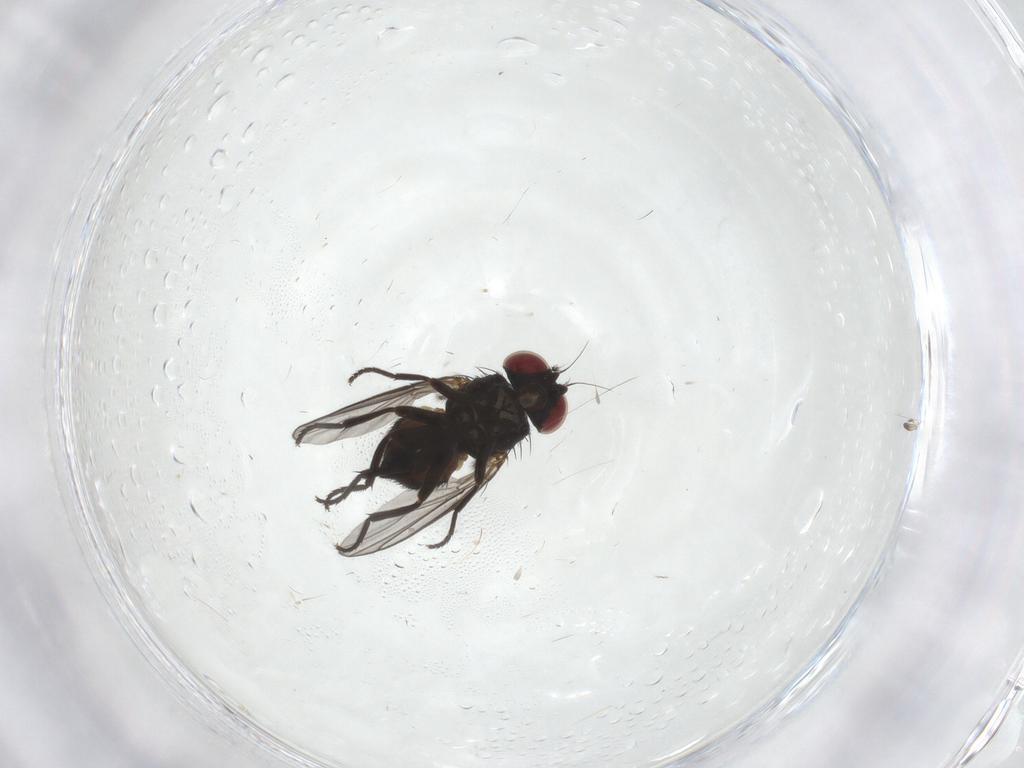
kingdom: Animalia
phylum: Arthropoda
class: Insecta
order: Diptera
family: Agromyzidae
